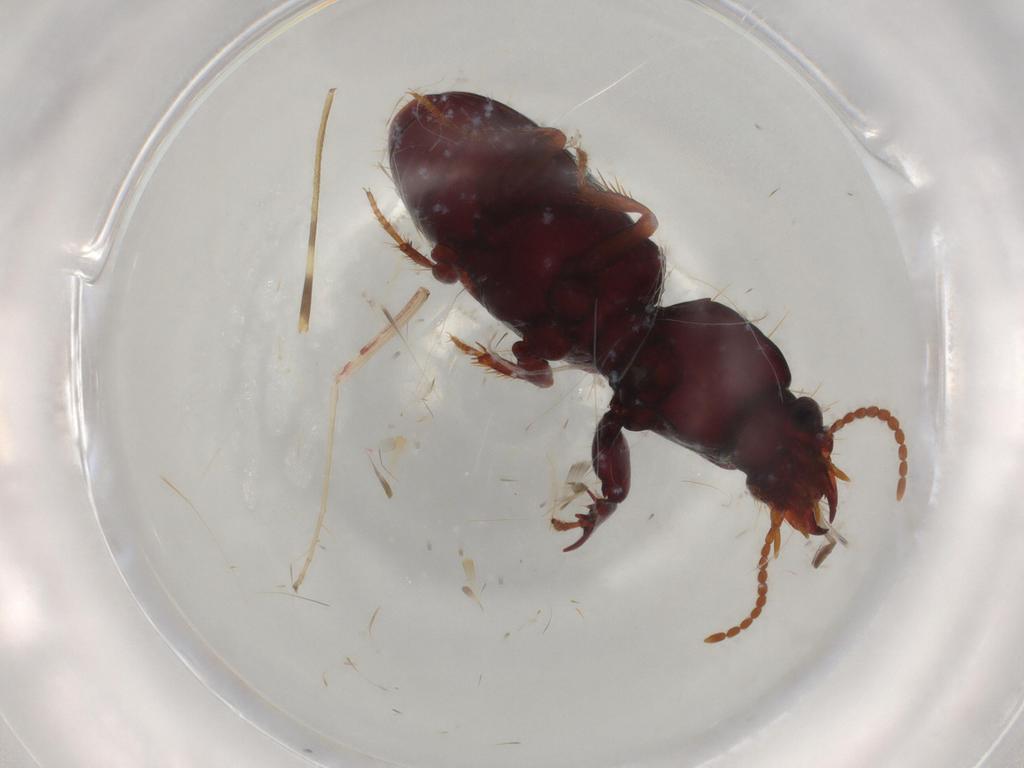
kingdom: Animalia
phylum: Arthropoda
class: Insecta
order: Coleoptera
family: Carabidae
